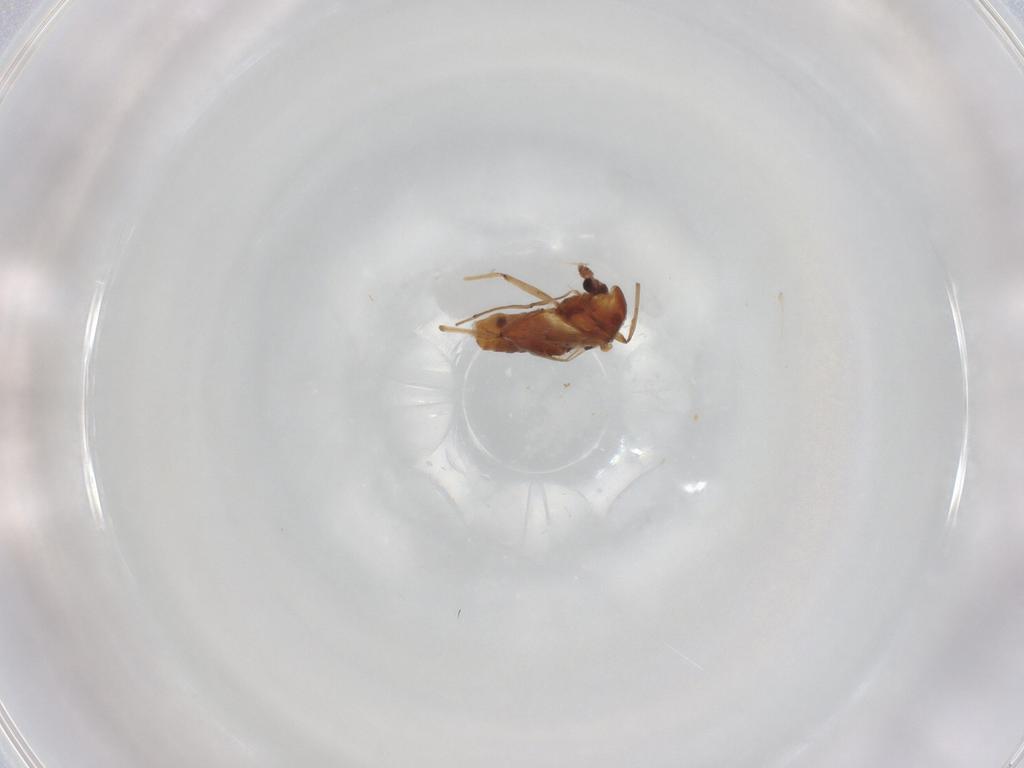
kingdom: Animalia
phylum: Arthropoda
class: Insecta
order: Diptera
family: Chironomidae
